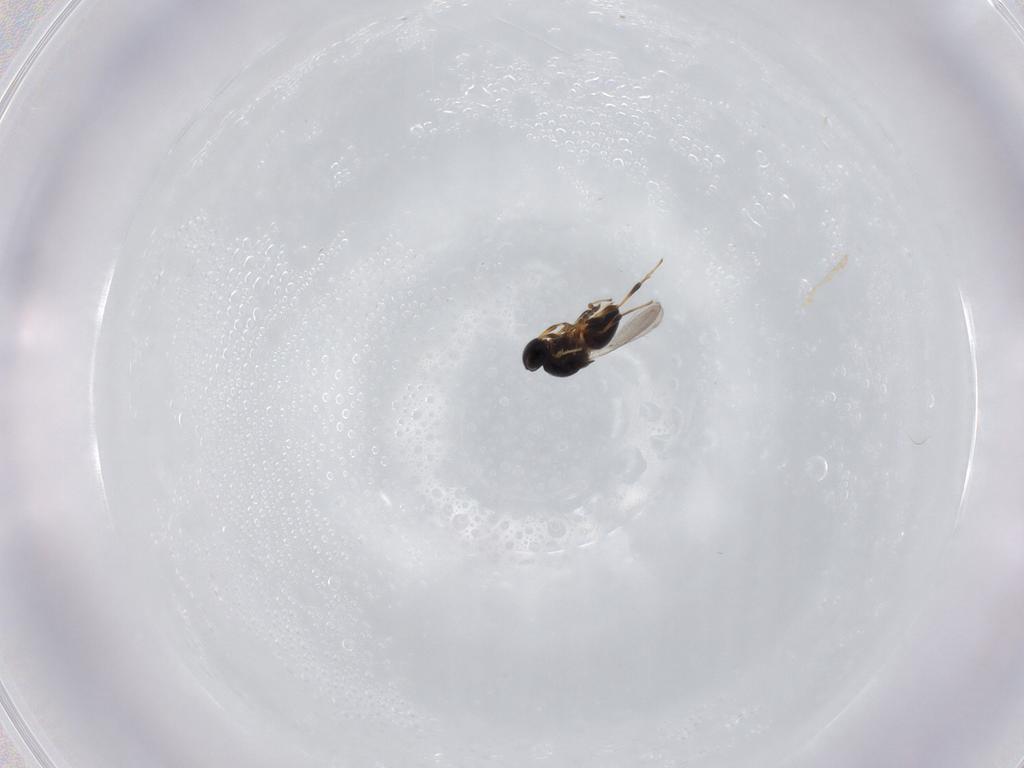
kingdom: Animalia
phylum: Arthropoda
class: Insecta
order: Hymenoptera
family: Platygastridae
